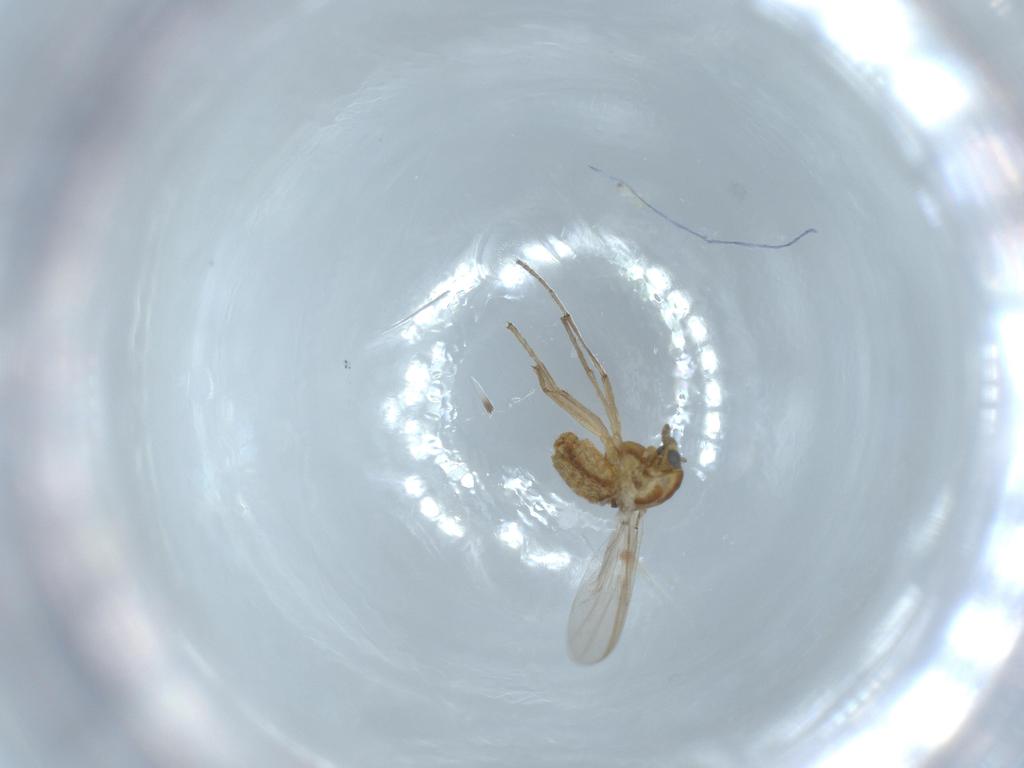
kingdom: Animalia
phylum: Arthropoda
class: Insecta
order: Diptera
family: Chironomidae
